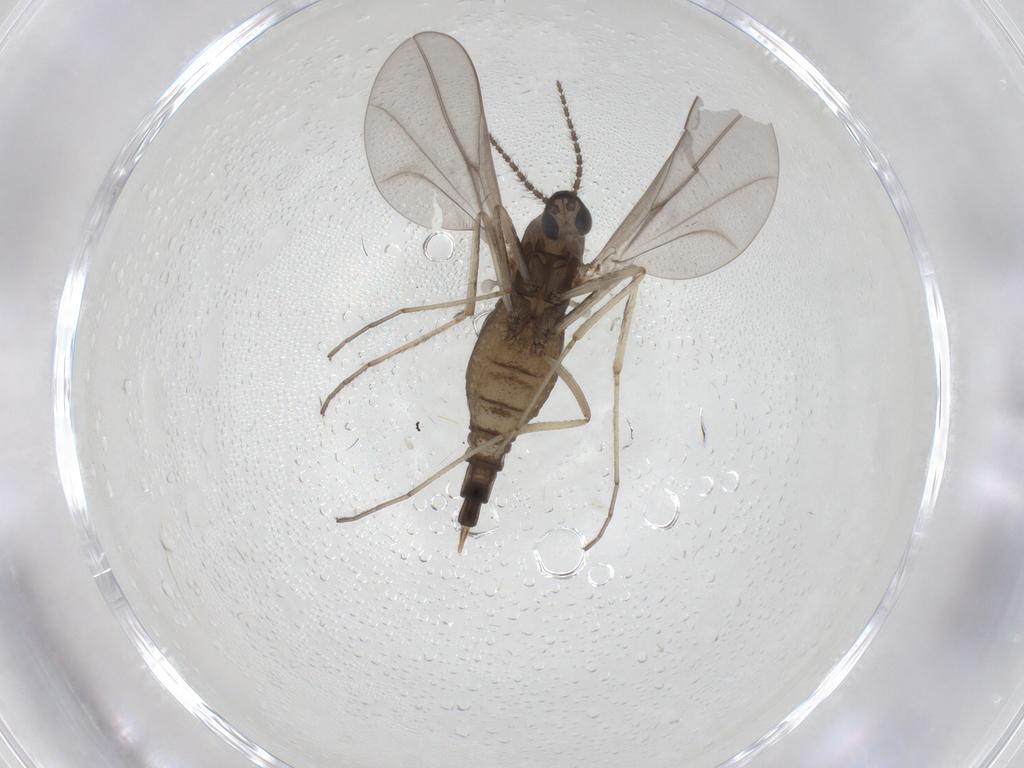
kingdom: Animalia
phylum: Arthropoda
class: Insecta
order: Diptera
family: Cecidomyiidae
